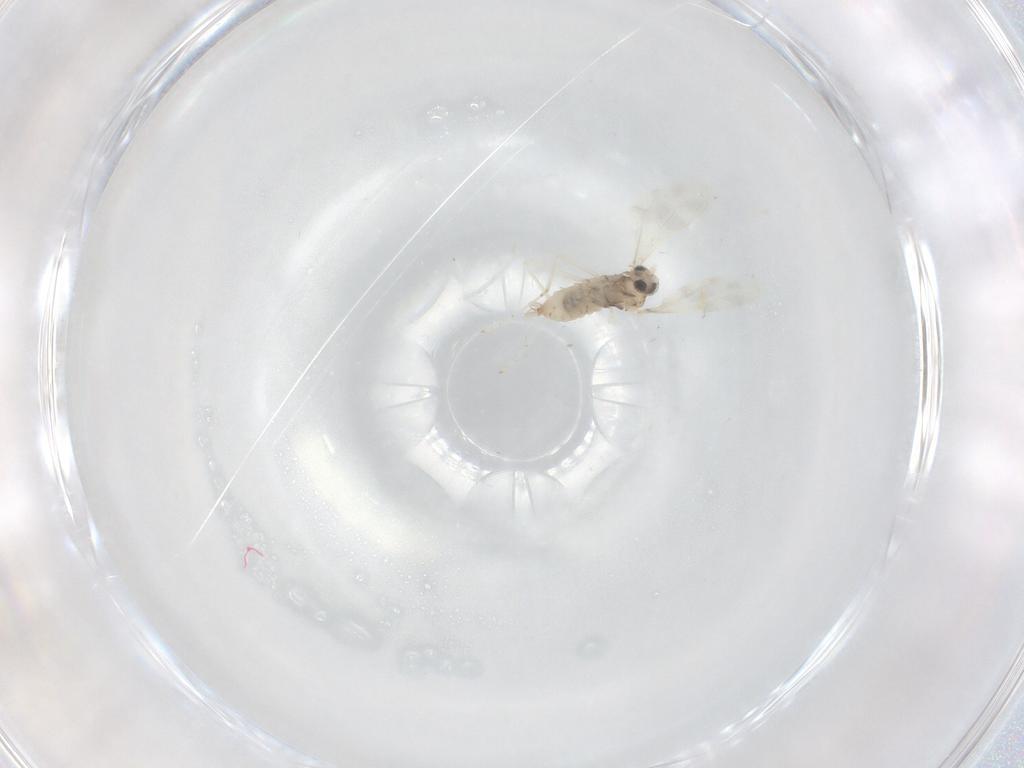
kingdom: Animalia
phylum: Arthropoda
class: Insecta
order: Diptera
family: Cecidomyiidae
